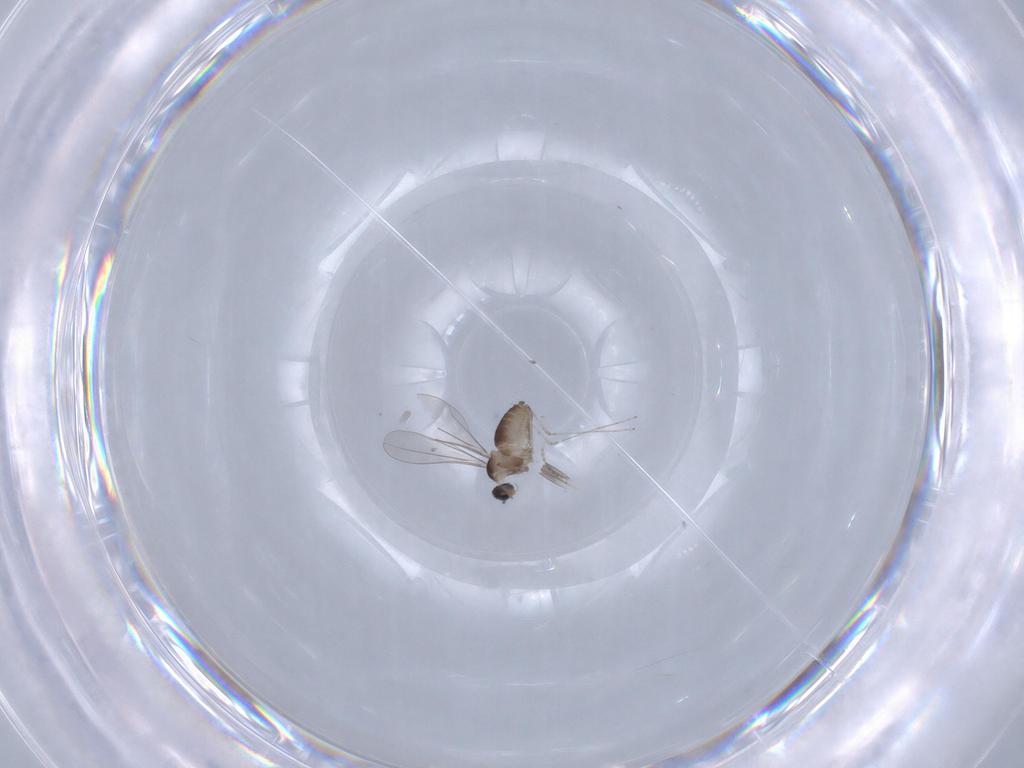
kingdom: Animalia
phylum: Arthropoda
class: Insecta
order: Diptera
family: Cecidomyiidae
